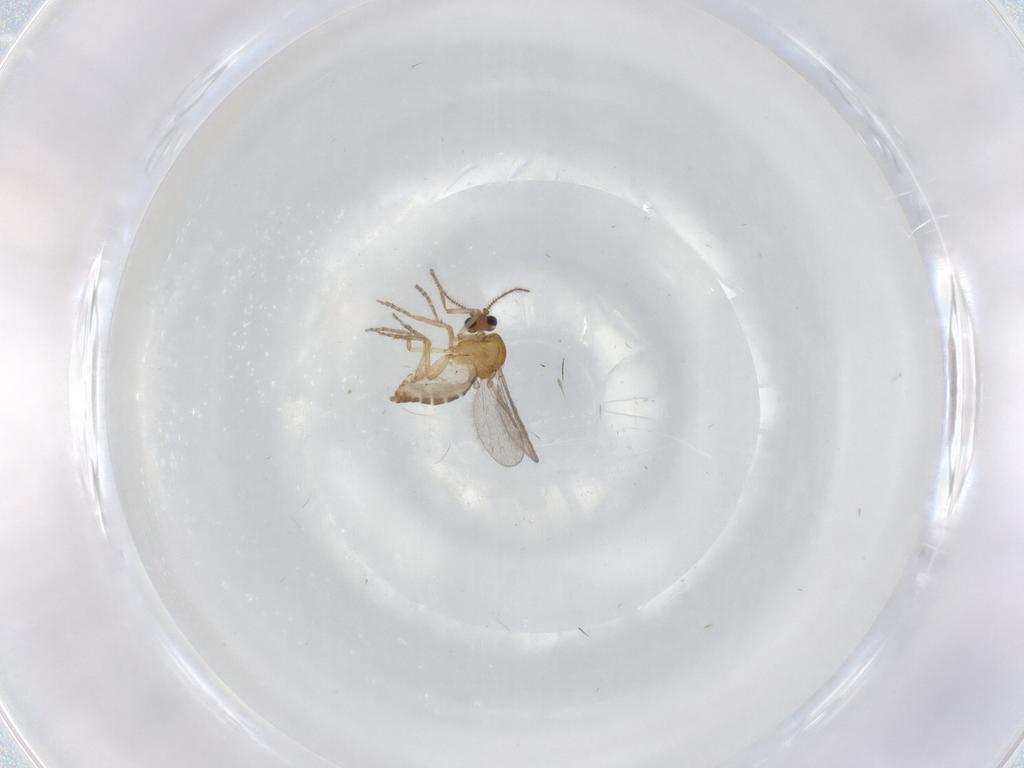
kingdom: Animalia
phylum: Arthropoda
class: Insecta
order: Diptera
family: Ceratopogonidae
